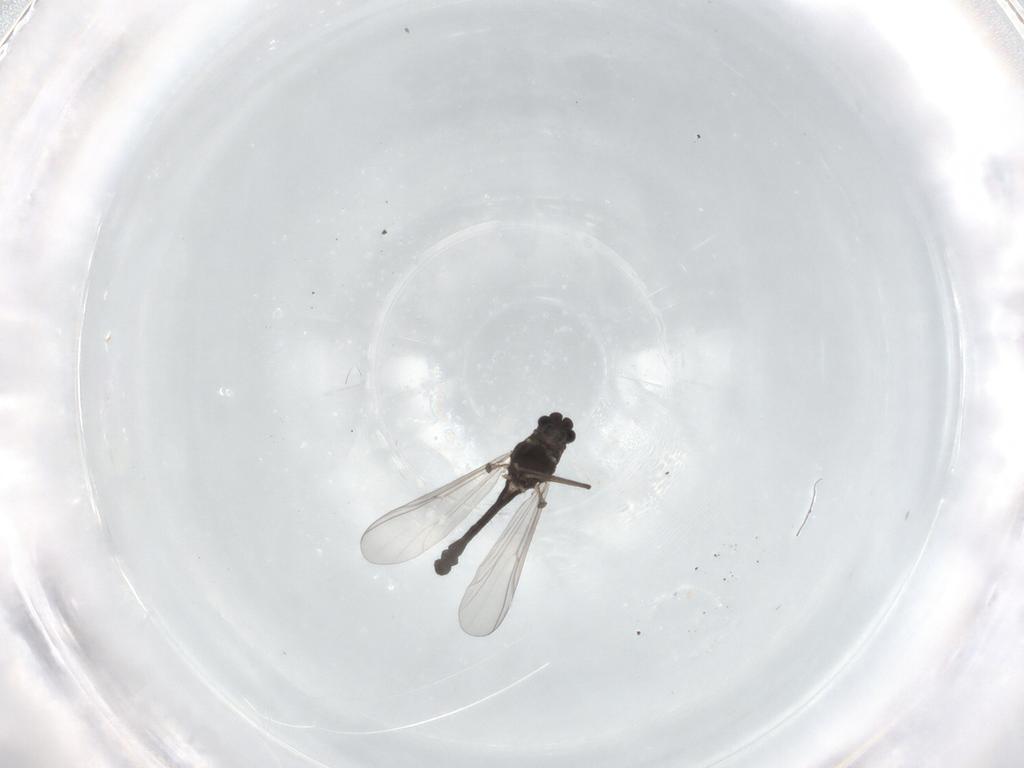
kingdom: Animalia
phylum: Arthropoda
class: Insecta
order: Diptera
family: Chironomidae
